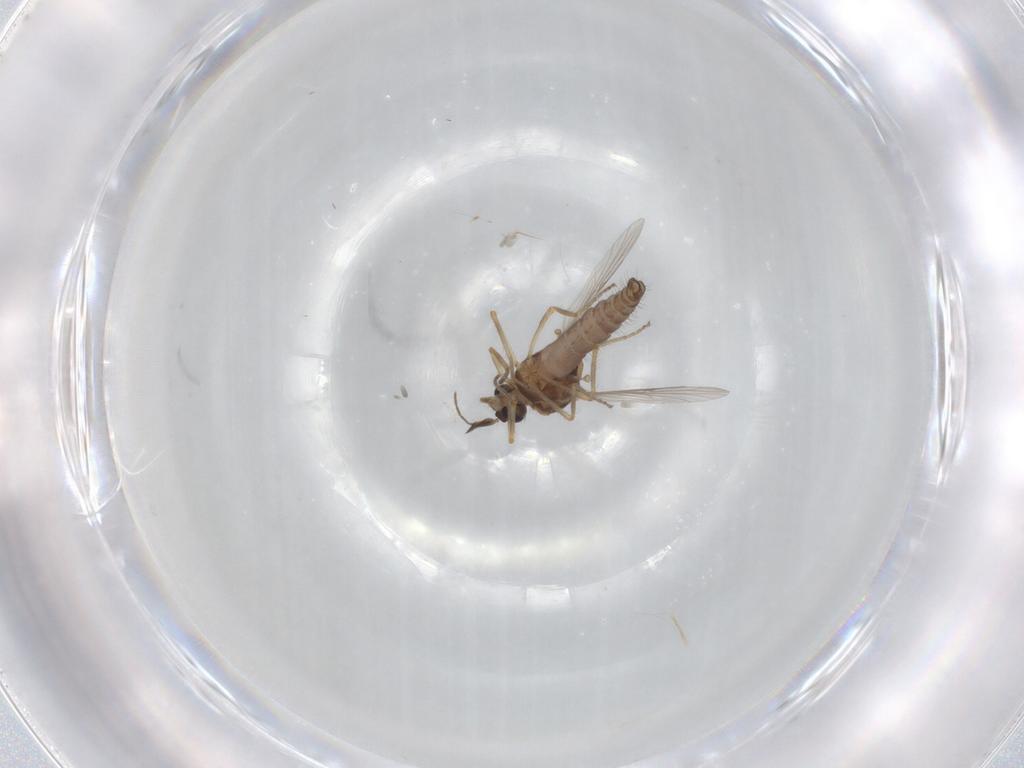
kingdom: Animalia
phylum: Arthropoda
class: Insecta
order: Diptera
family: Ceratopogonidae
